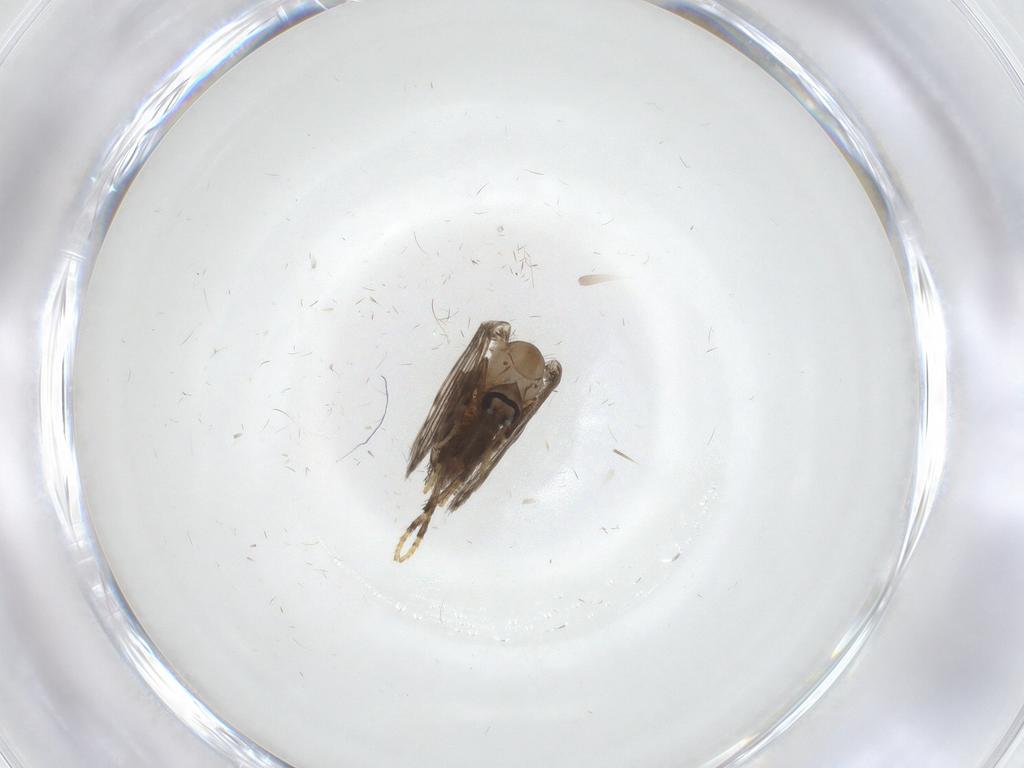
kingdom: Animalia
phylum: Arthropoda
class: Insecta
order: Diptera
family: Psychodidae
